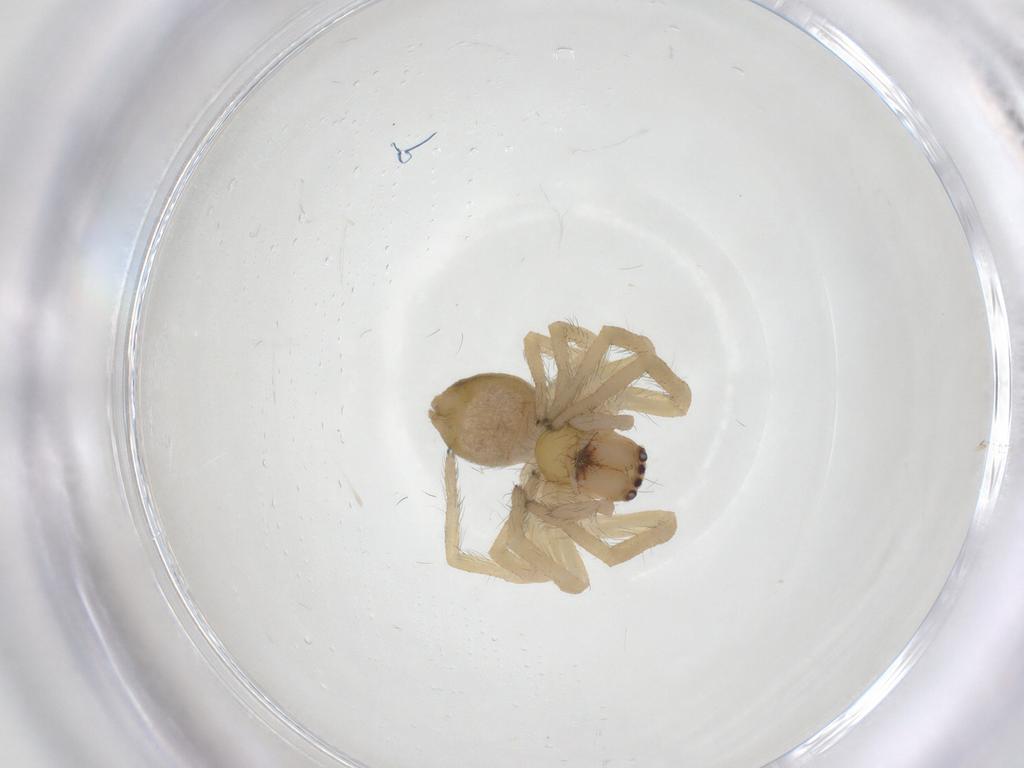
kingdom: Animalia
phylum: Arthropoda
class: Arachnida
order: Araneae
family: Mimetidae
